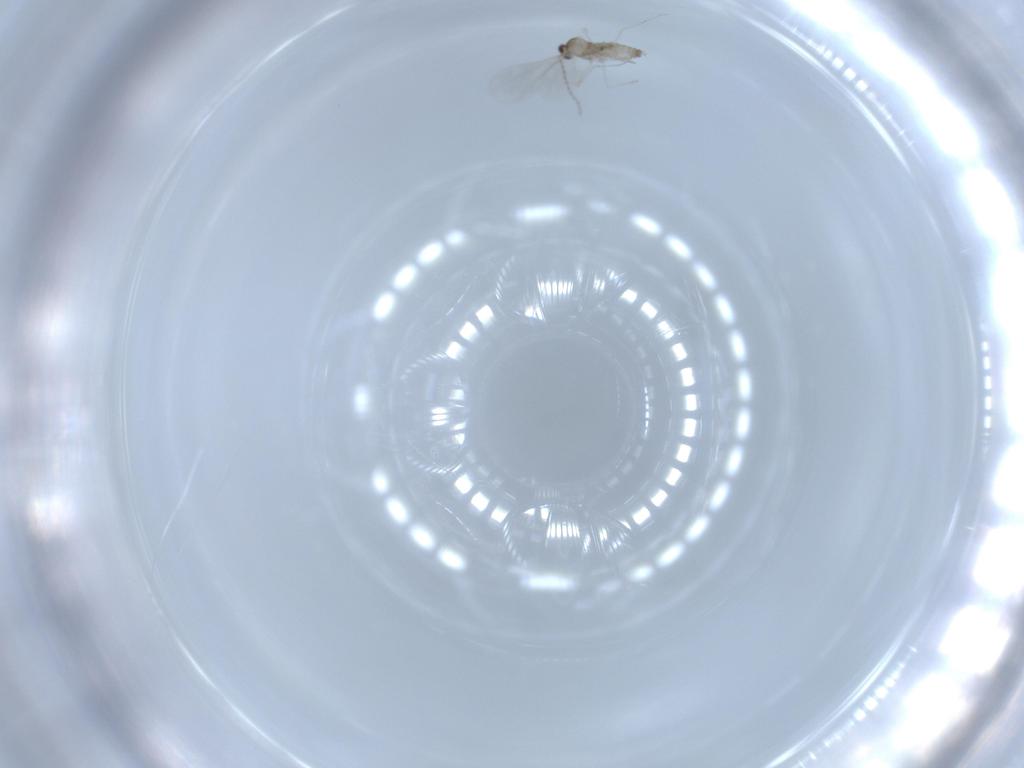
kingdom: Animalia
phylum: Arthropoda
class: Insecta
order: Diptera
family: Cecidomyiidae
